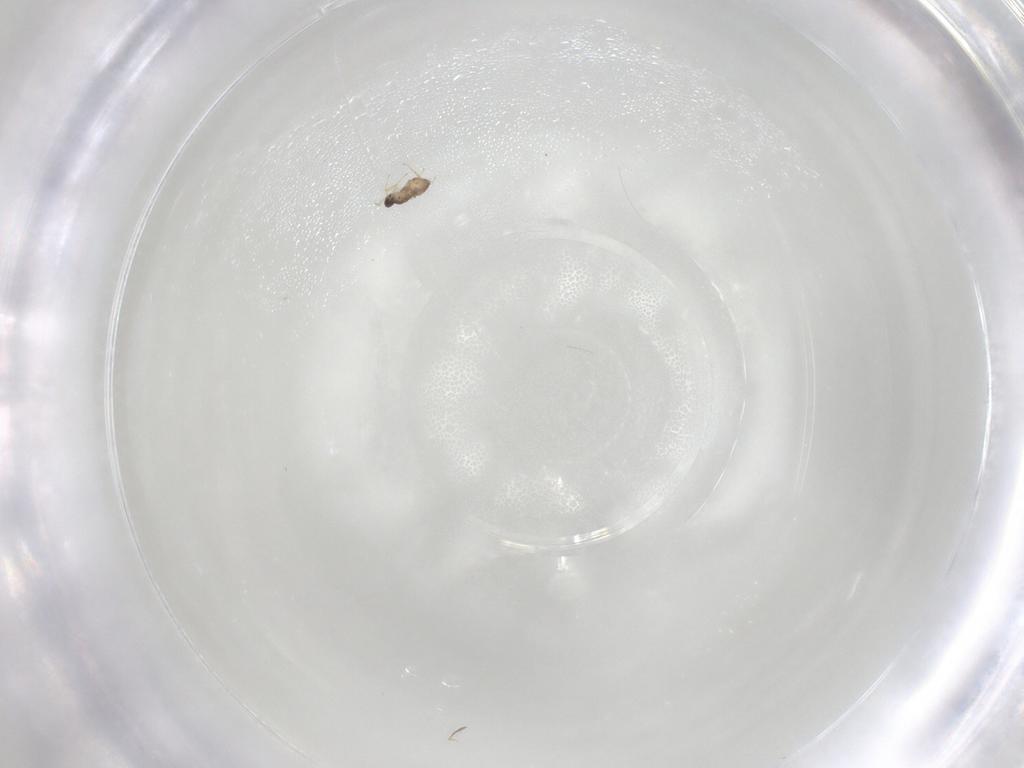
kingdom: Animalia
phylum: Arthropoda
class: Insecta
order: Hymenoptera
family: Mymaridae
